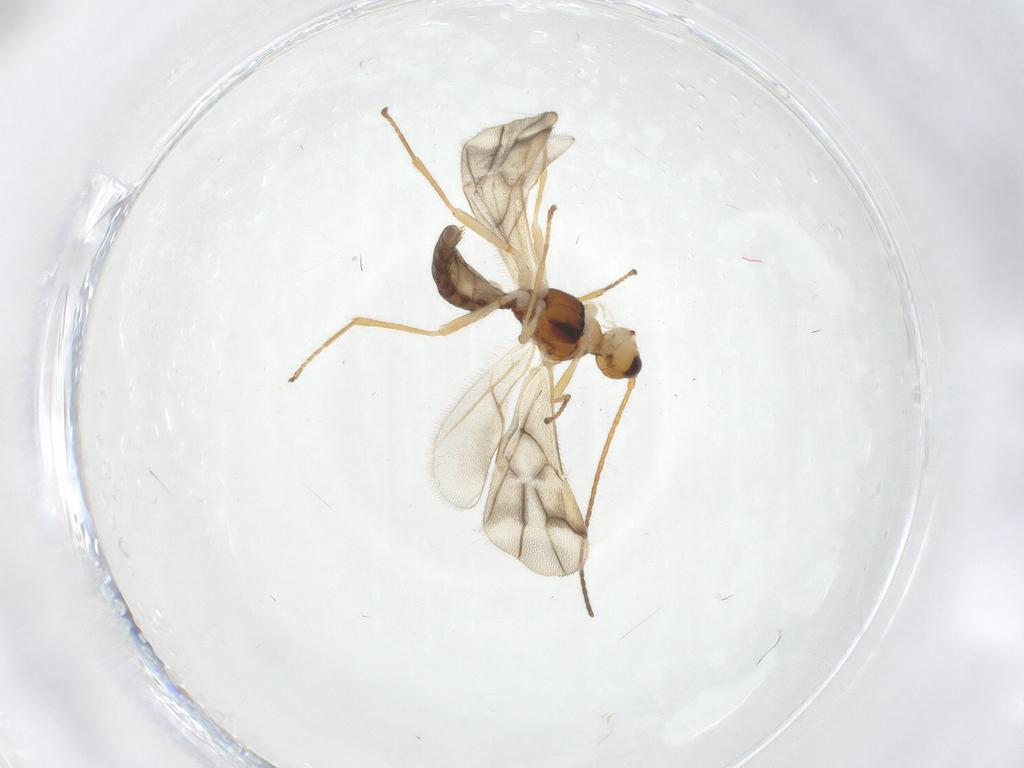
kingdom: Animalia
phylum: Arthropoda
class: Insecta
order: Hymenoptera
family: Braconidae
